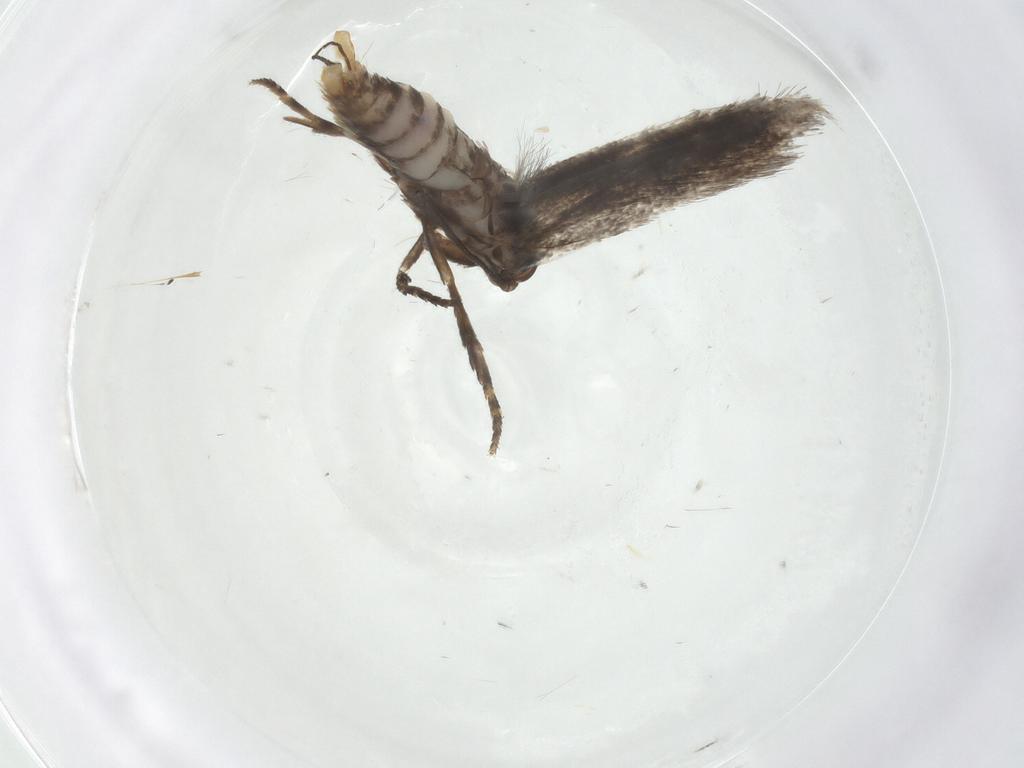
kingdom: Animalia
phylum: Arthropoda
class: Insecta
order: Lepidoptera
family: Elachistidae
